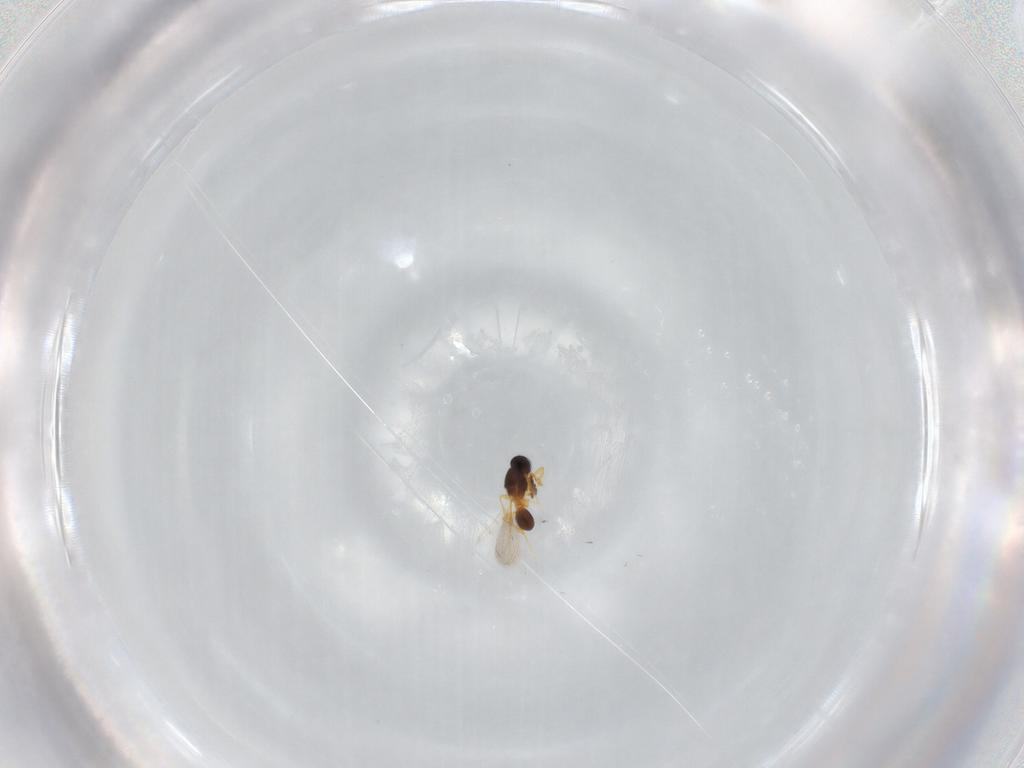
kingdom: Animalia
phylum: Arthropoda
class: Insecta
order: Hymenoptera
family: Platygastridae
